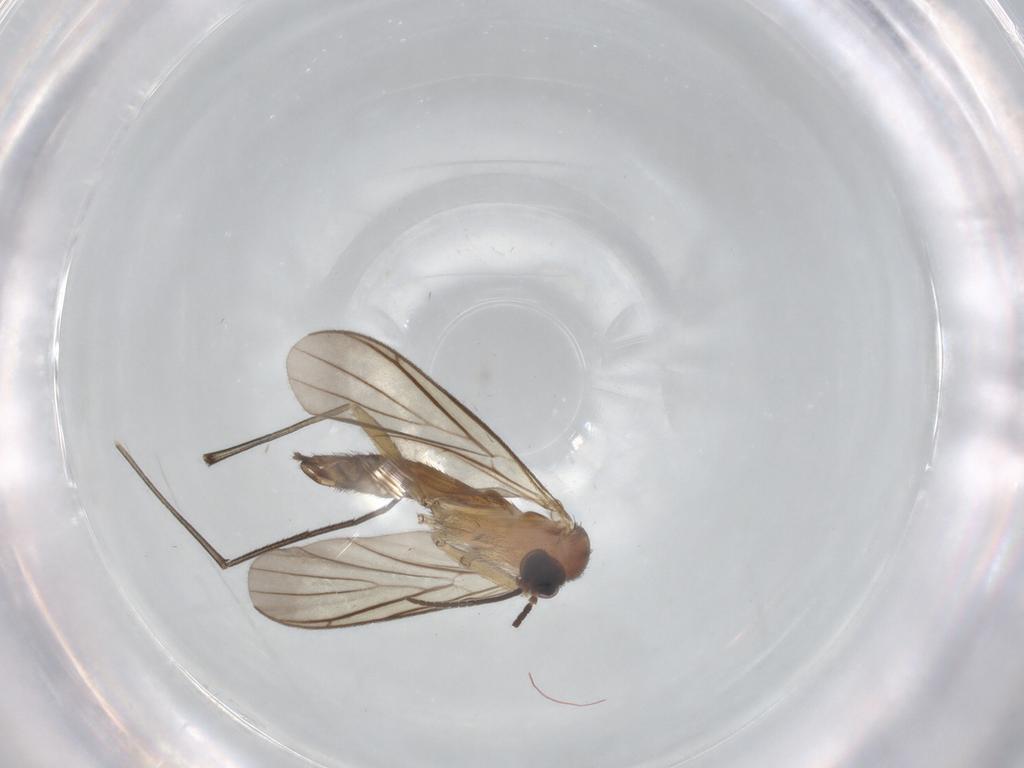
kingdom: Animalia
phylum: Arthropoda
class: Insecta
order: Diptera
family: Keroplatidae
